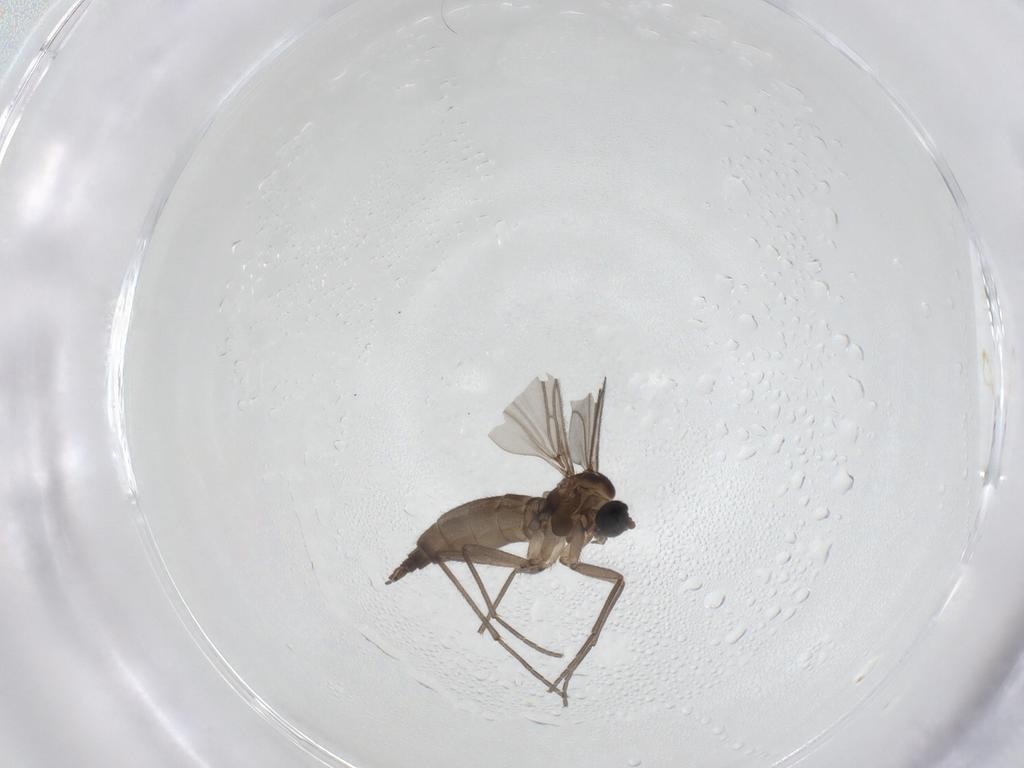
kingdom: Animalia
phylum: Arthropoda
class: Insecta
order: Diptera
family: Sciaridae
